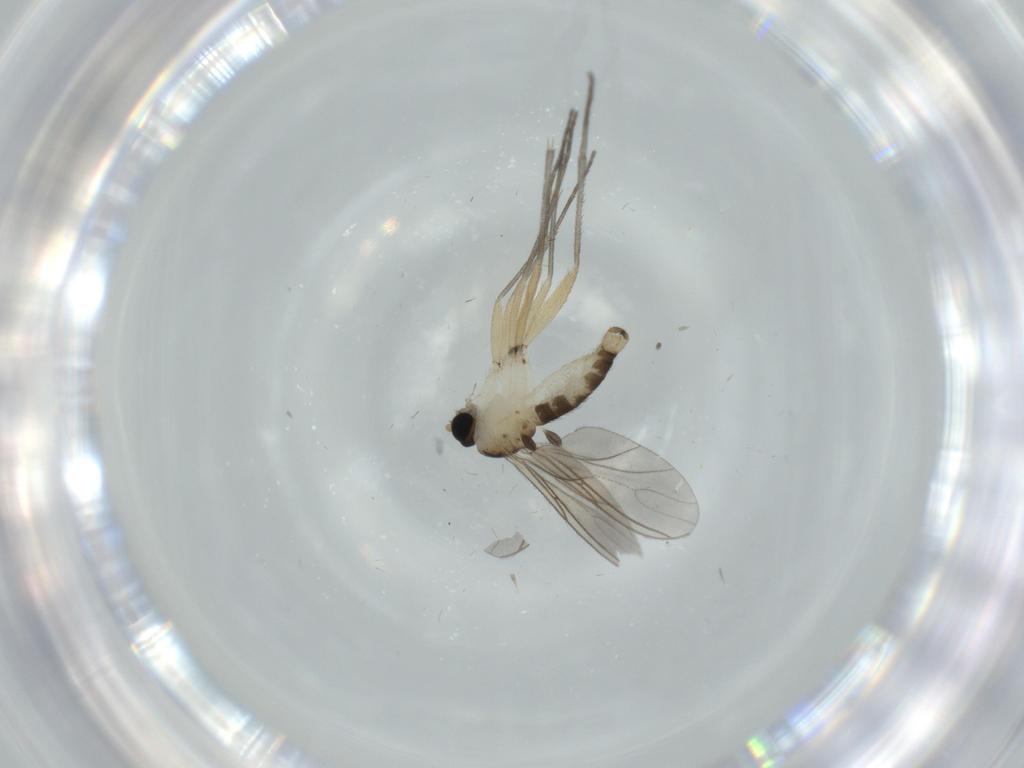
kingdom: Animalia
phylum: Arthropoda
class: Insecta
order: Diptera
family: Sciaridae
